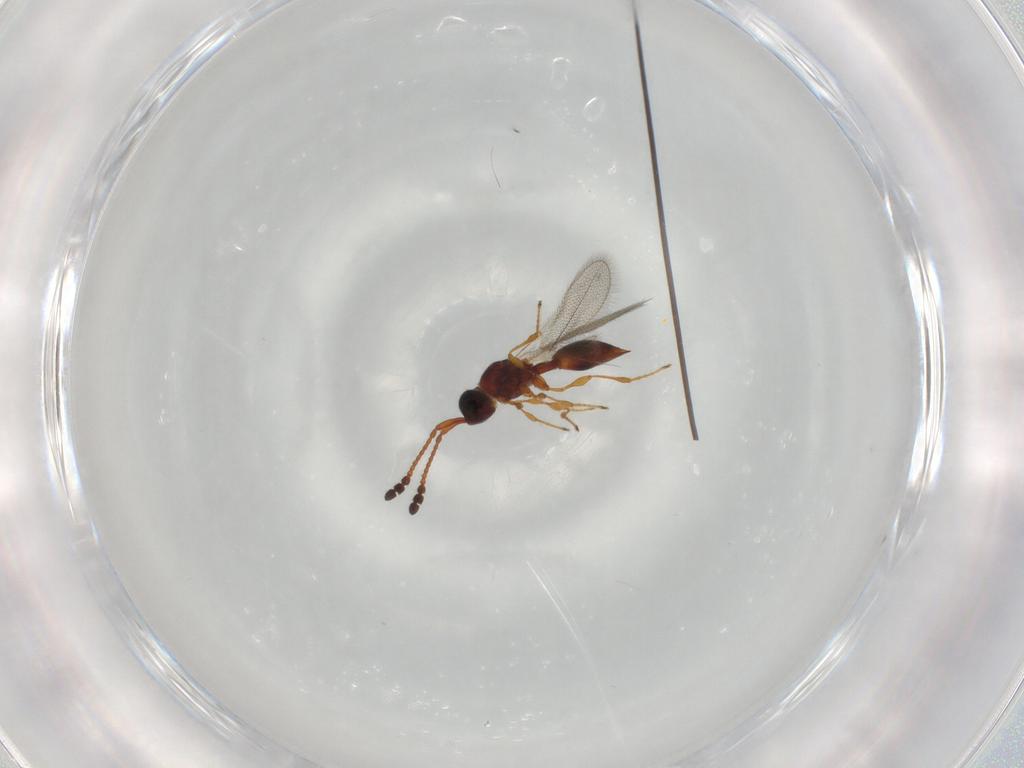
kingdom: Animalia
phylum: Arthropoda
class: Insecta
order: Hymenoptera
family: Diapriidae
